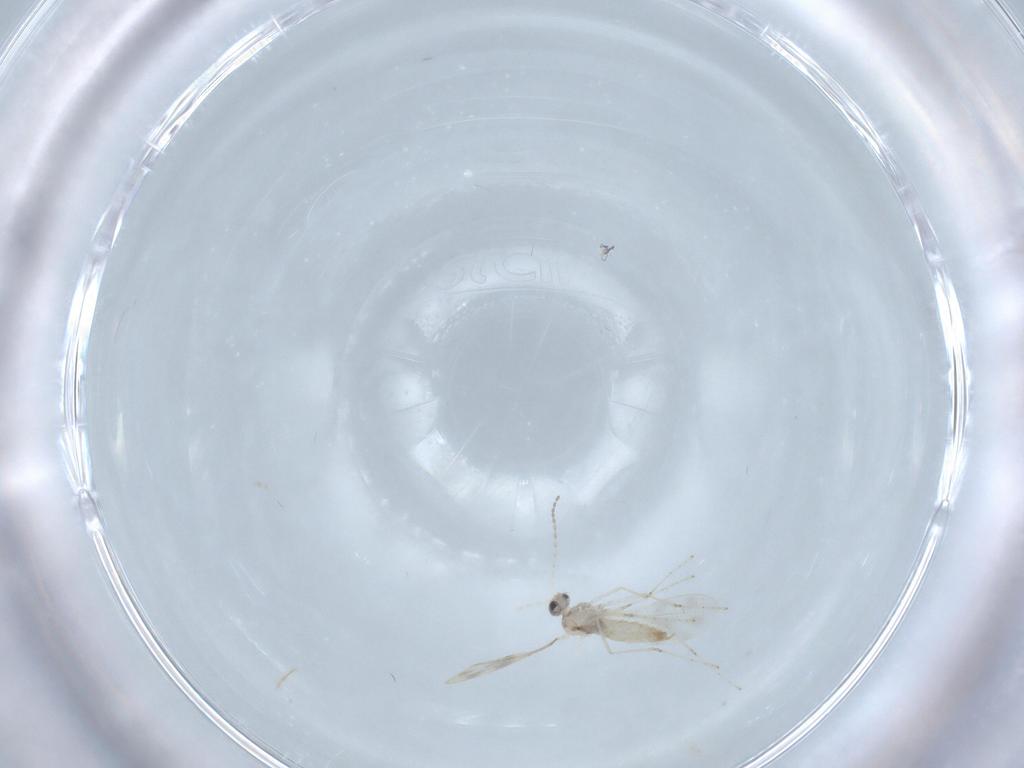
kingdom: Animalia
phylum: Arthropoda
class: Insecta
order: Diptera
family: Cecidomyiidae
